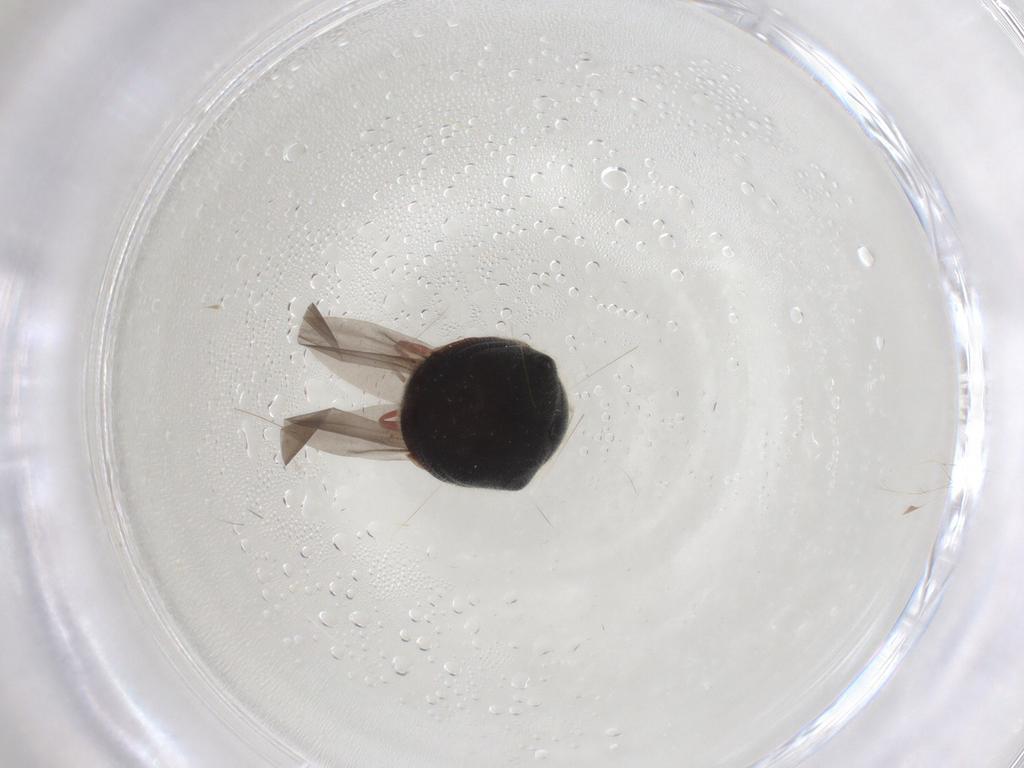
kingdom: Animalia
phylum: Arthropoda
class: Insecta
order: Coleoptera
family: Ptinidae
